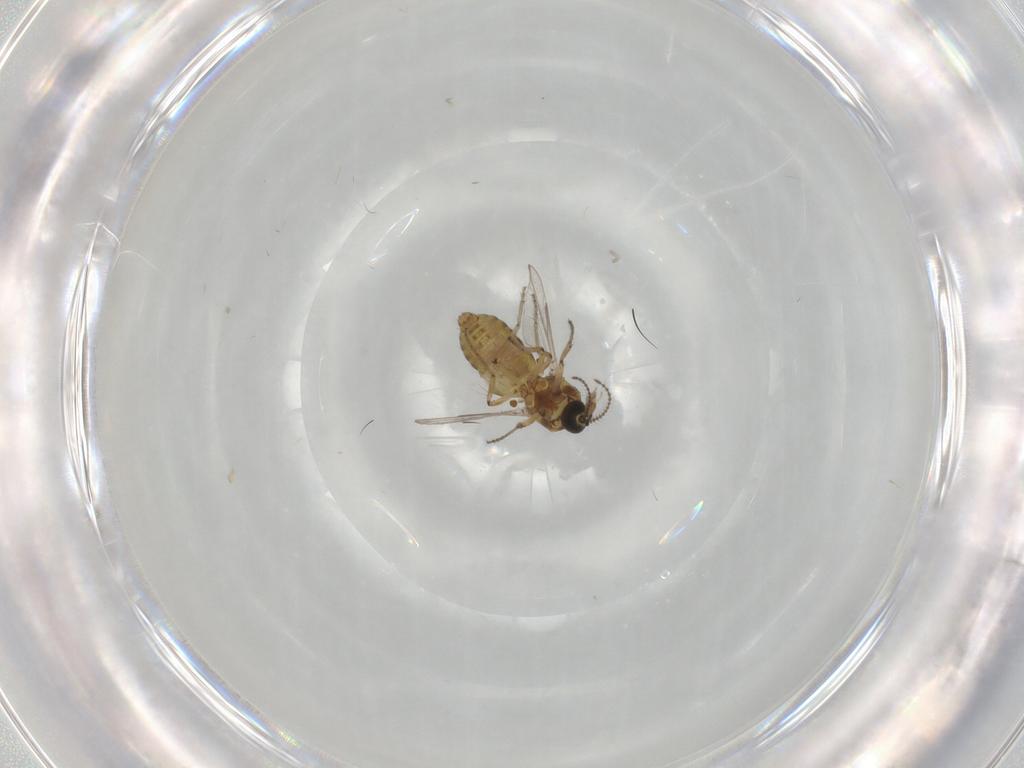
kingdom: Animalia
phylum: Arthropoda
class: Insecta
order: Diptera
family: Ceratopogonidae
